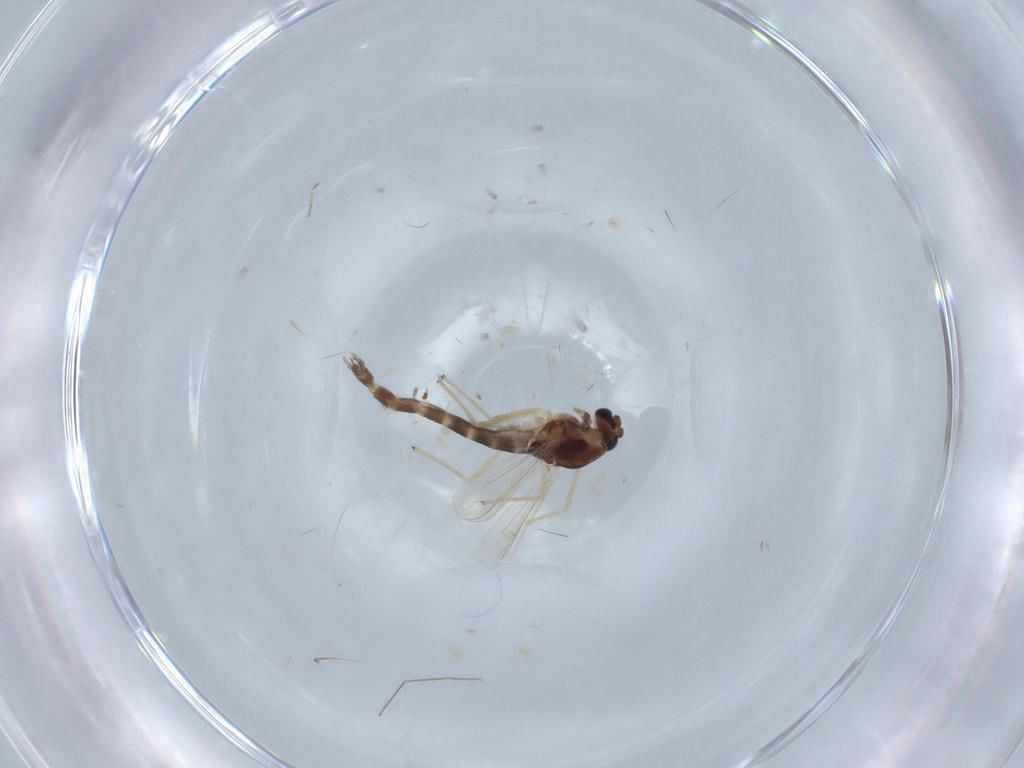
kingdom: Animalia
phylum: Arthropoda
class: Insecta
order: Diptera
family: Chironomidae
